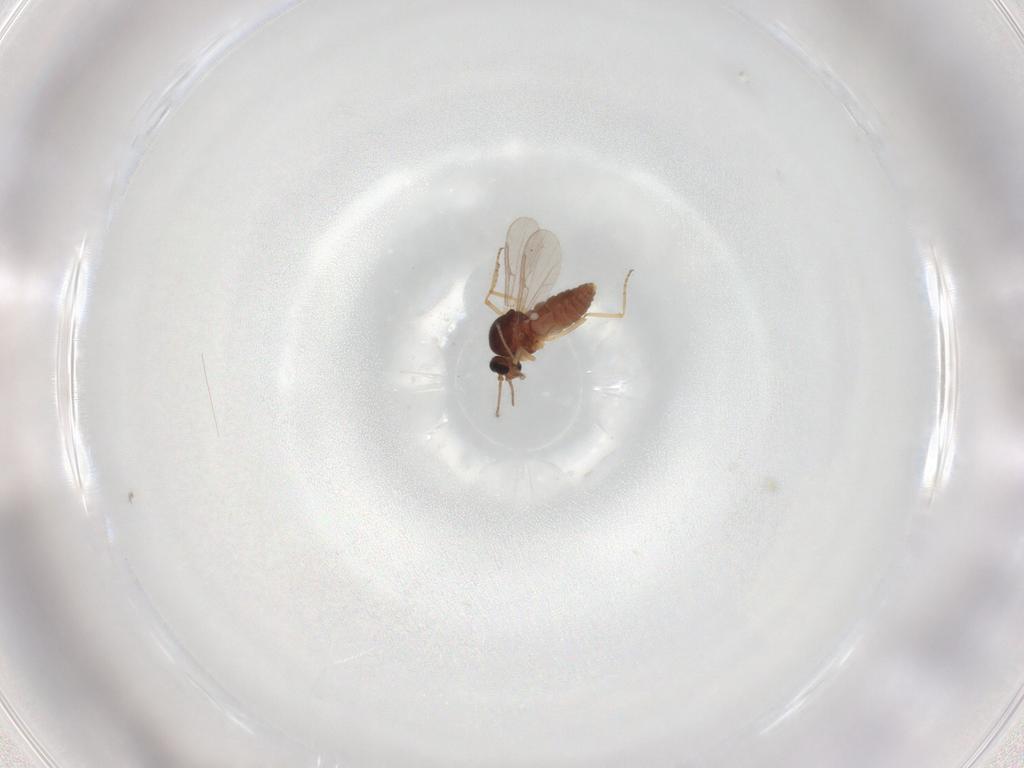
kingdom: Animalia
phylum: Arthropoda
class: Insecta
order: Diptera
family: Ceratopogonidae
